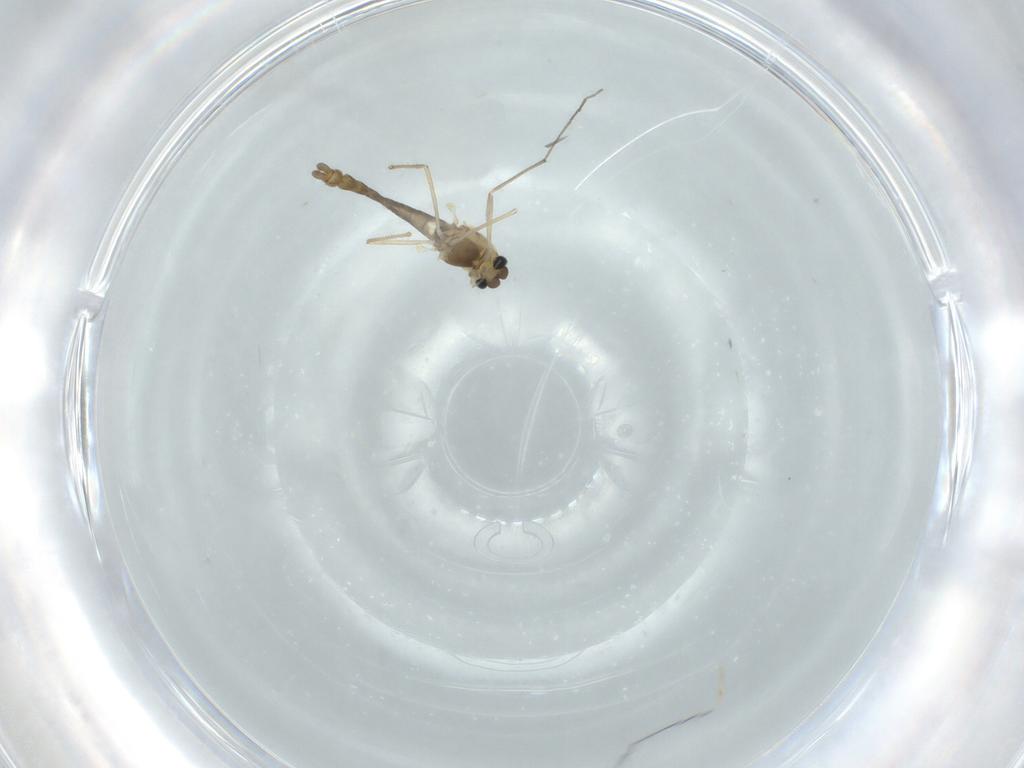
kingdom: Animalia
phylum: Arthropoda
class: Insecta
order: Diptera
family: Chironomidae
